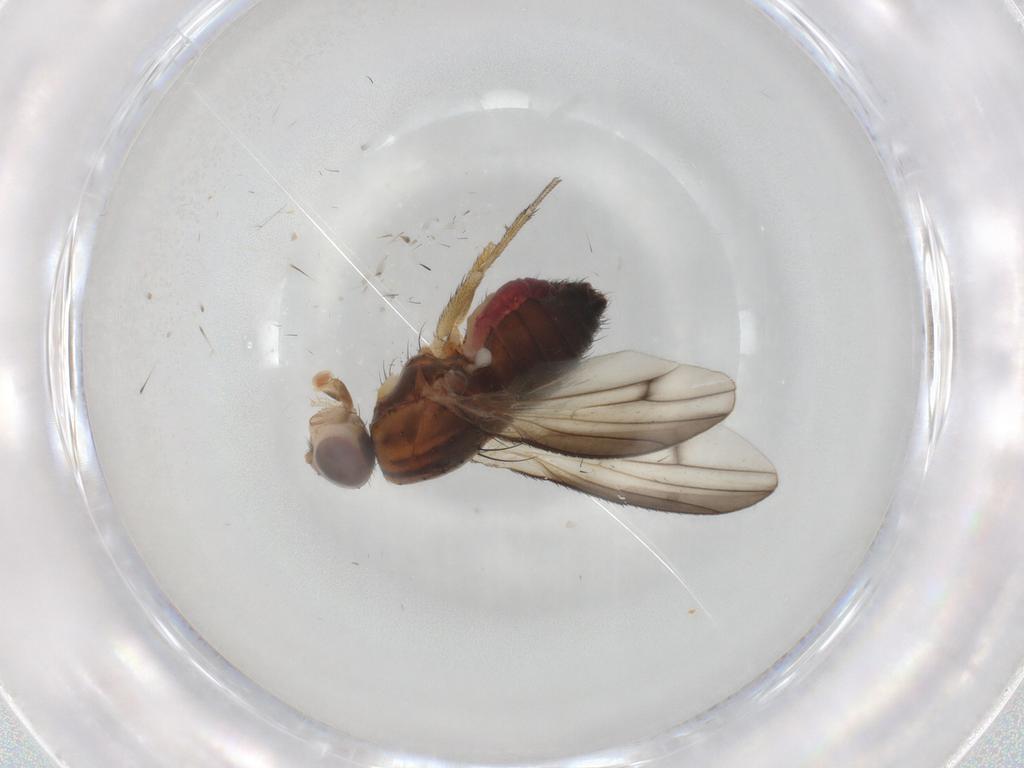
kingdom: Animalia
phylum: Arthropoda
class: Insecta
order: Diptera
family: Heleomyzidae
